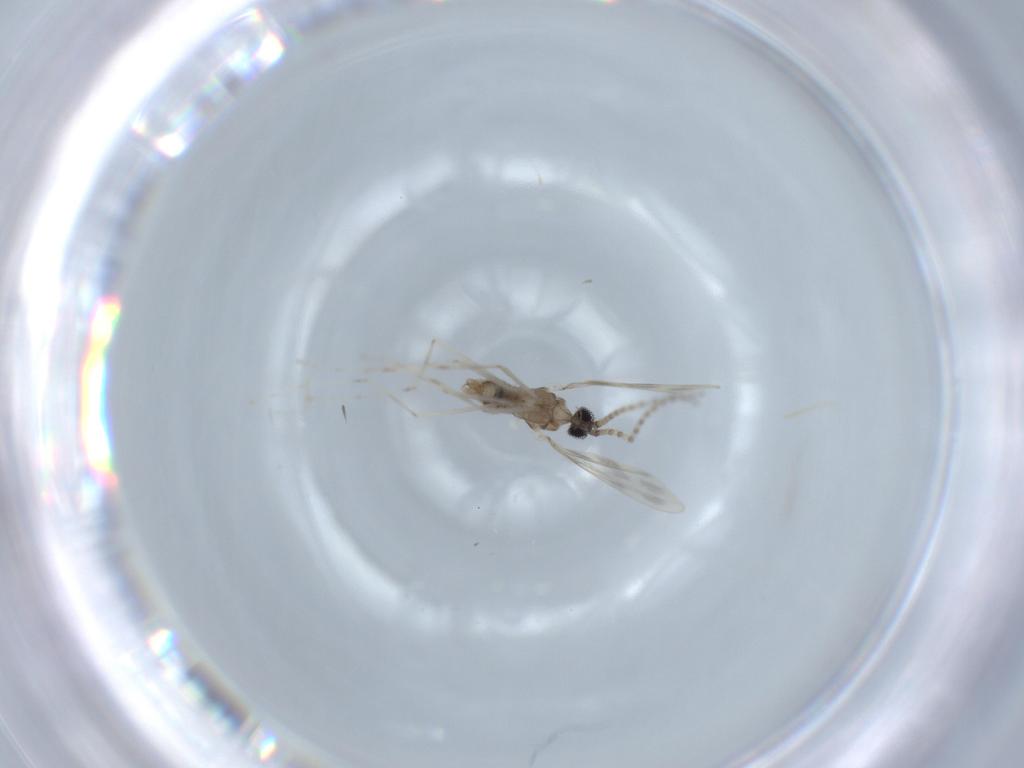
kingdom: Animalia
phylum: Arthropoda
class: Insecta
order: Diptera
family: Cecidomyiidae
